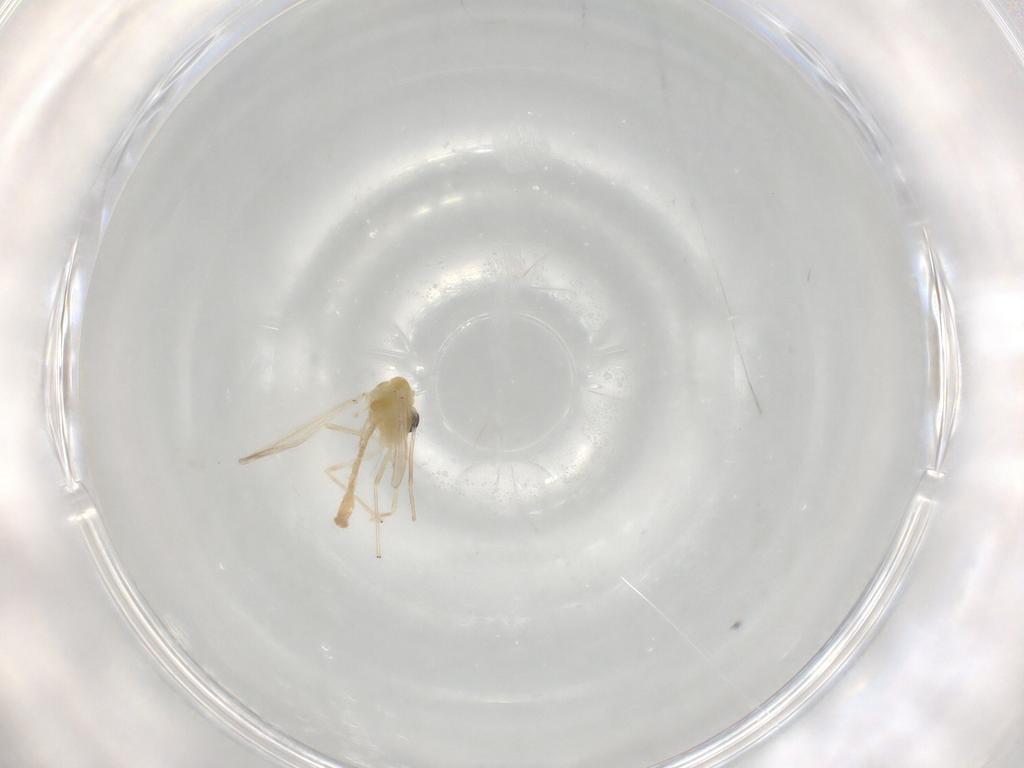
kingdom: Animalia
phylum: Arthropoda
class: Insecta
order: Diptera
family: Chironomidae
